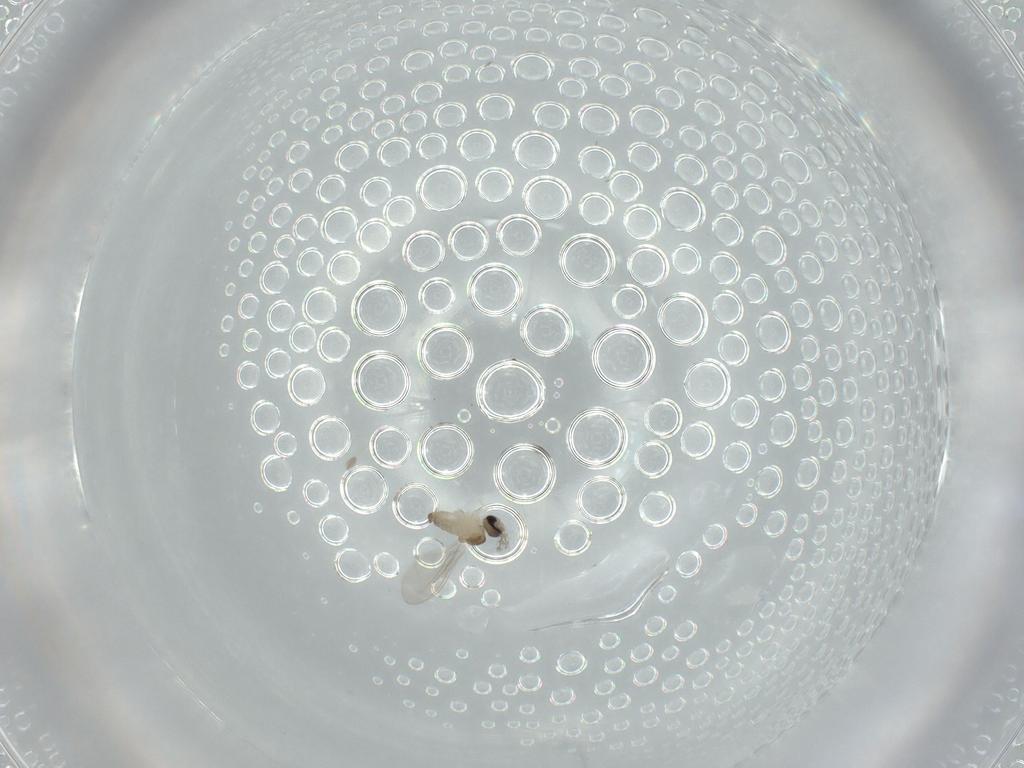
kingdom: Animalia
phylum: Arthropoda
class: Insecta
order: Diptera
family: Cecidomyiidae
